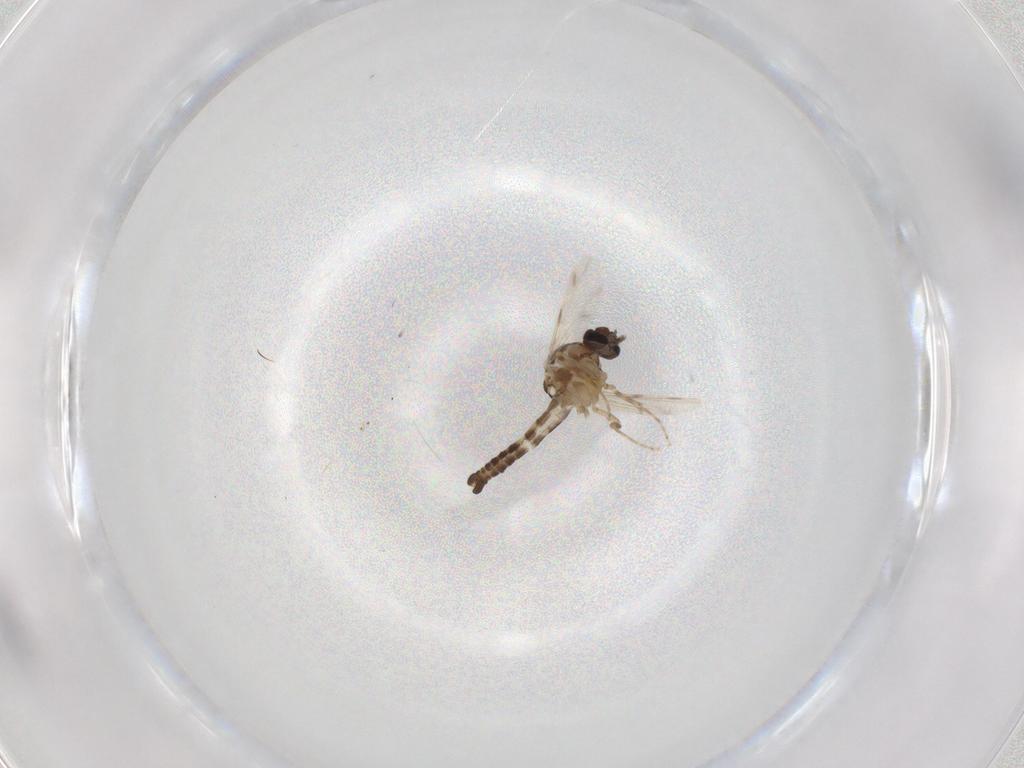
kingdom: Animalia
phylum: Arthropoda
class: Insecta
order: Diptera
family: Ceratopogonidae
